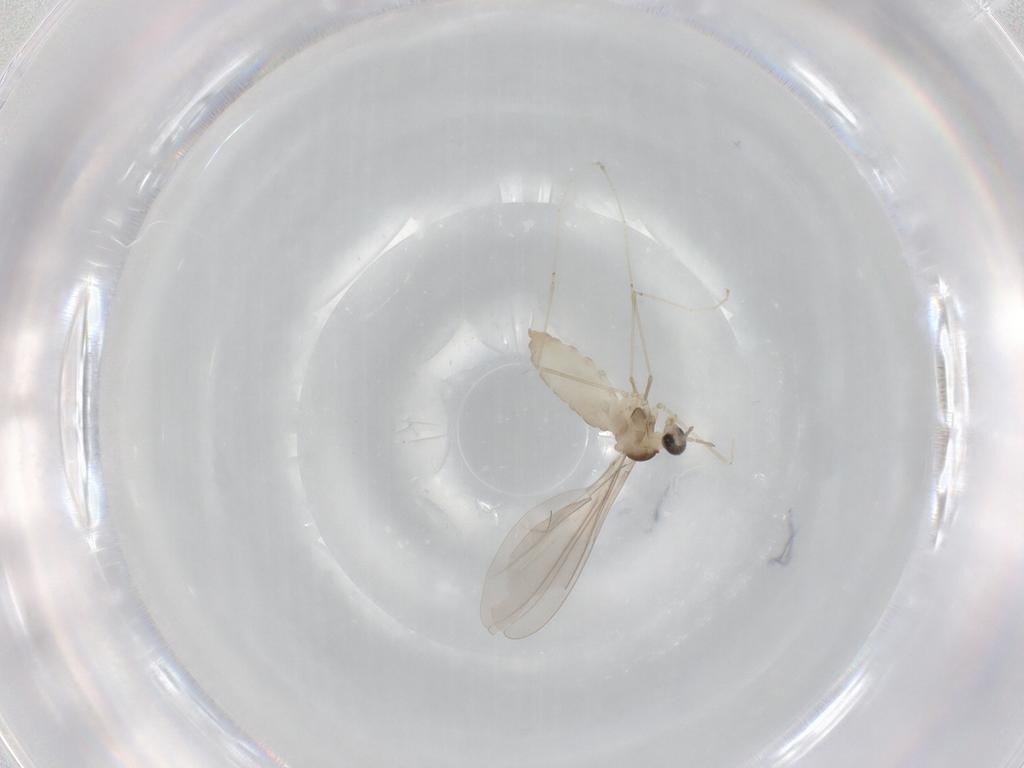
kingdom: Animalia
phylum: Arthropoda
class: Insecta
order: Diptera
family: Cecidomyiidae
